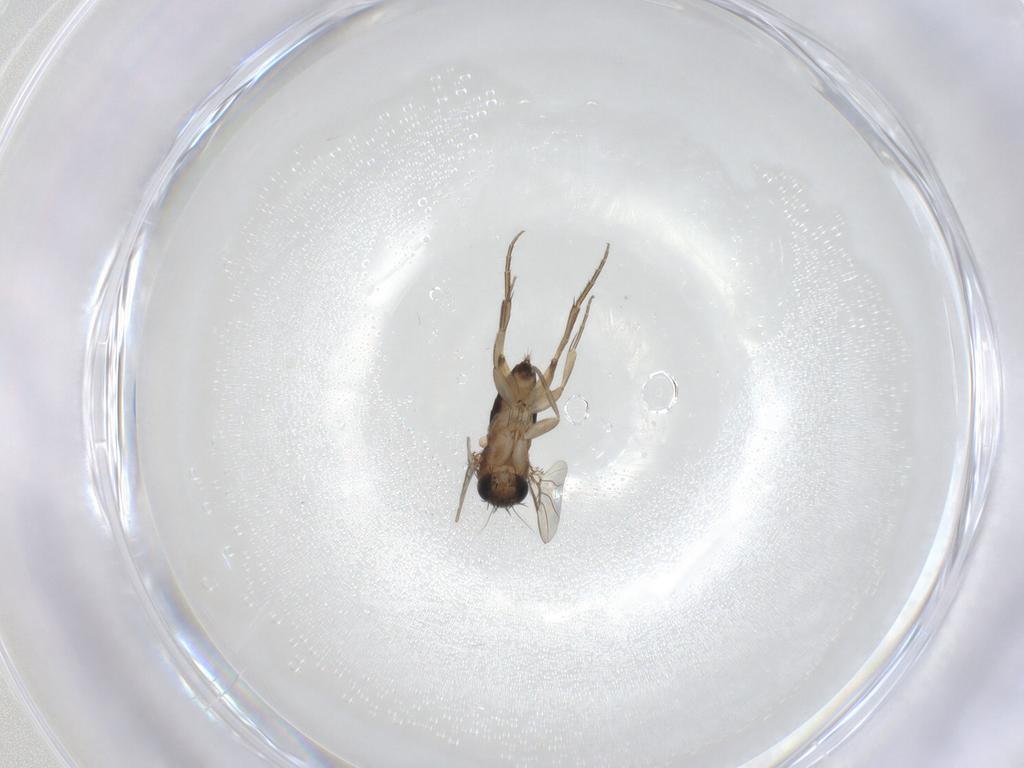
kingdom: Animalia
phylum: Arthropoda
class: Insecta
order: Diptera
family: Phoridae
